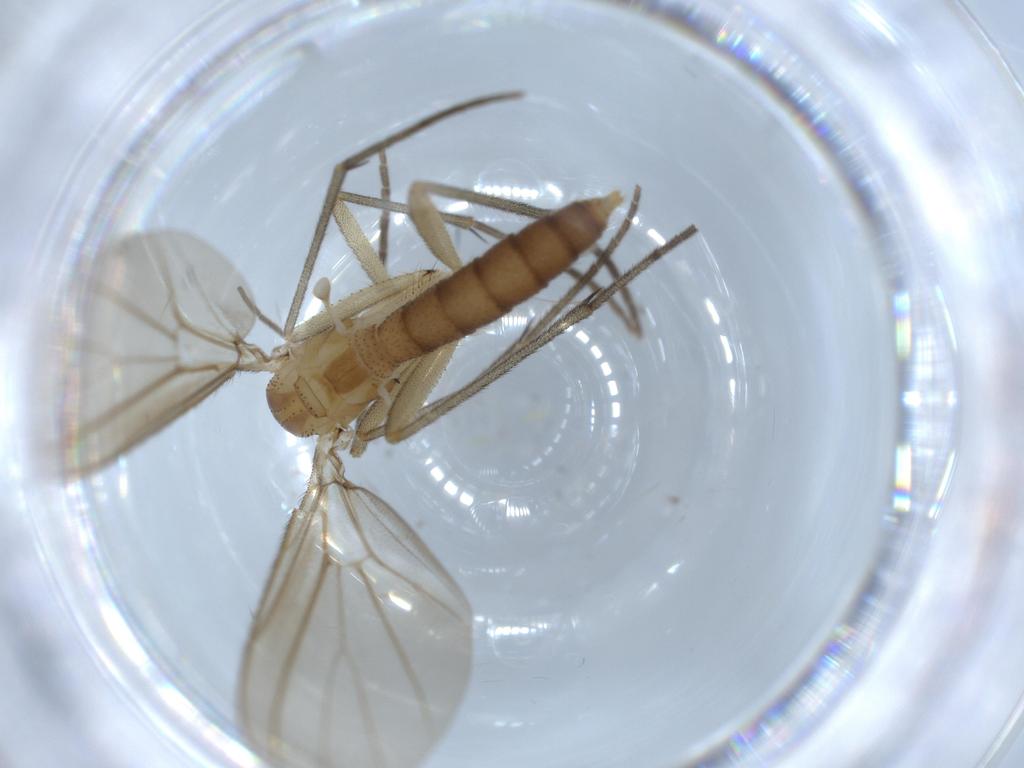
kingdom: Animalia
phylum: Arthropoda
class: Insecta
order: Diptera
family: Diadocidiidae
